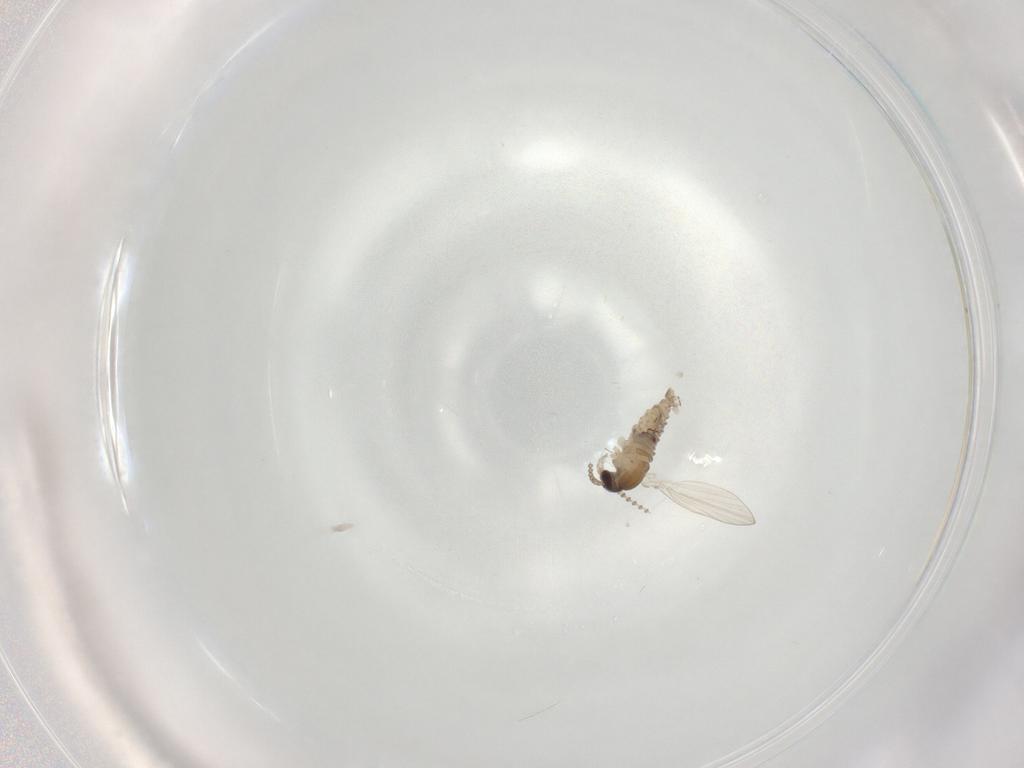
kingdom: Animalia
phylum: Arthropoda
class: Insecta
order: Diptera
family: Psychodidae
